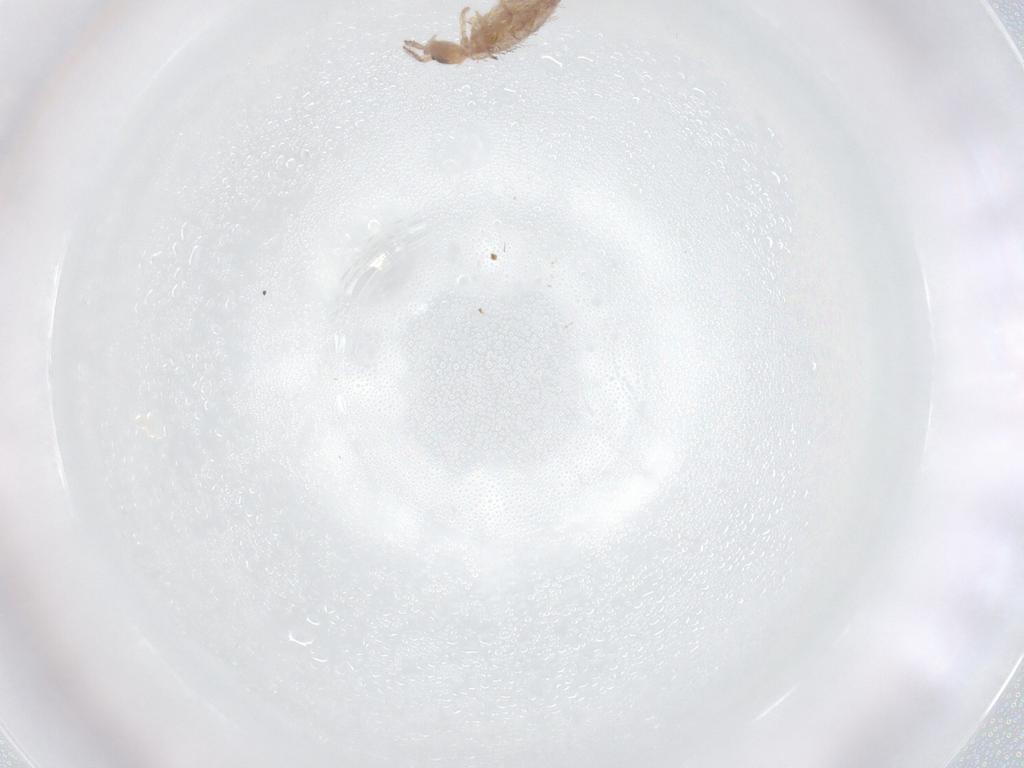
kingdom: Animalia
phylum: Arthropoda
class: Collembola
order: Entomobryomorpha
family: Entomobryidae
